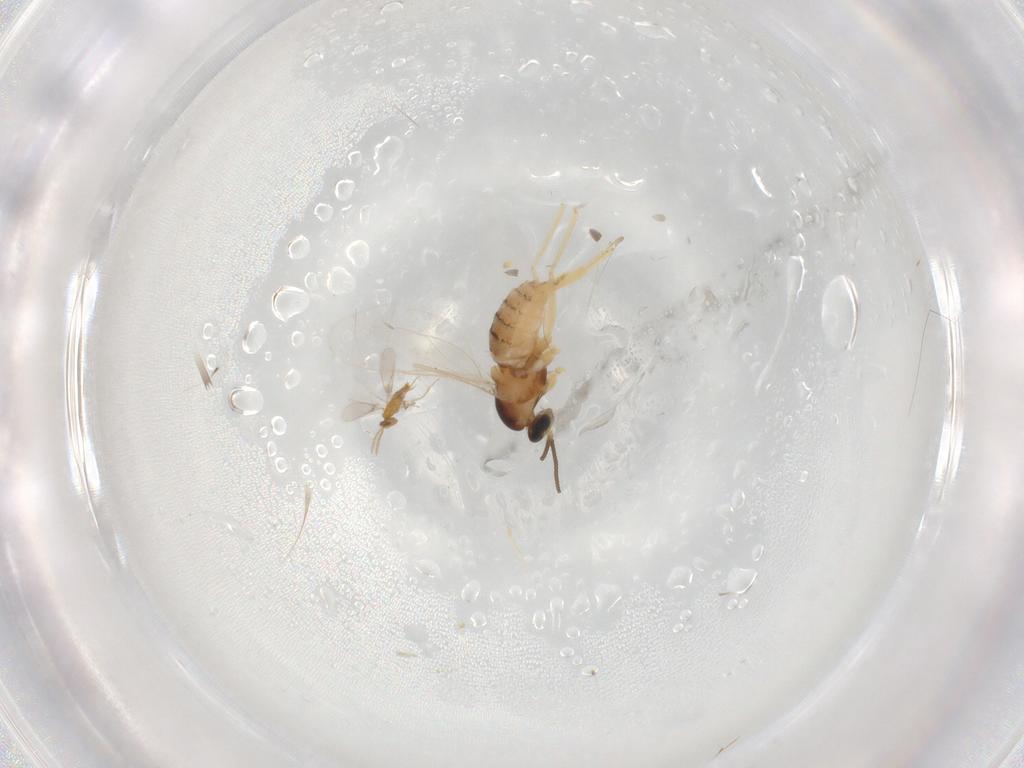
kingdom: Animalia
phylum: Arthropoda
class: Insecta
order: Diptera
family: Cecidomyiidae
